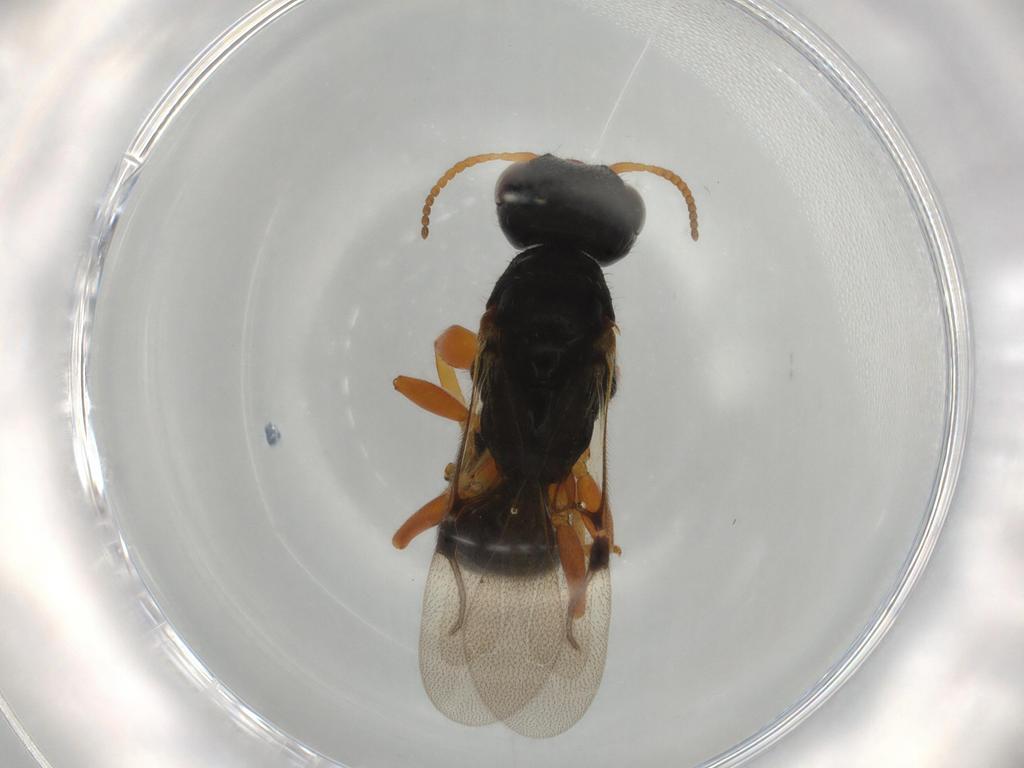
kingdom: Animalia
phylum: Arthropoda
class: Insecta
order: Hymenoptera
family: Bethylidae
